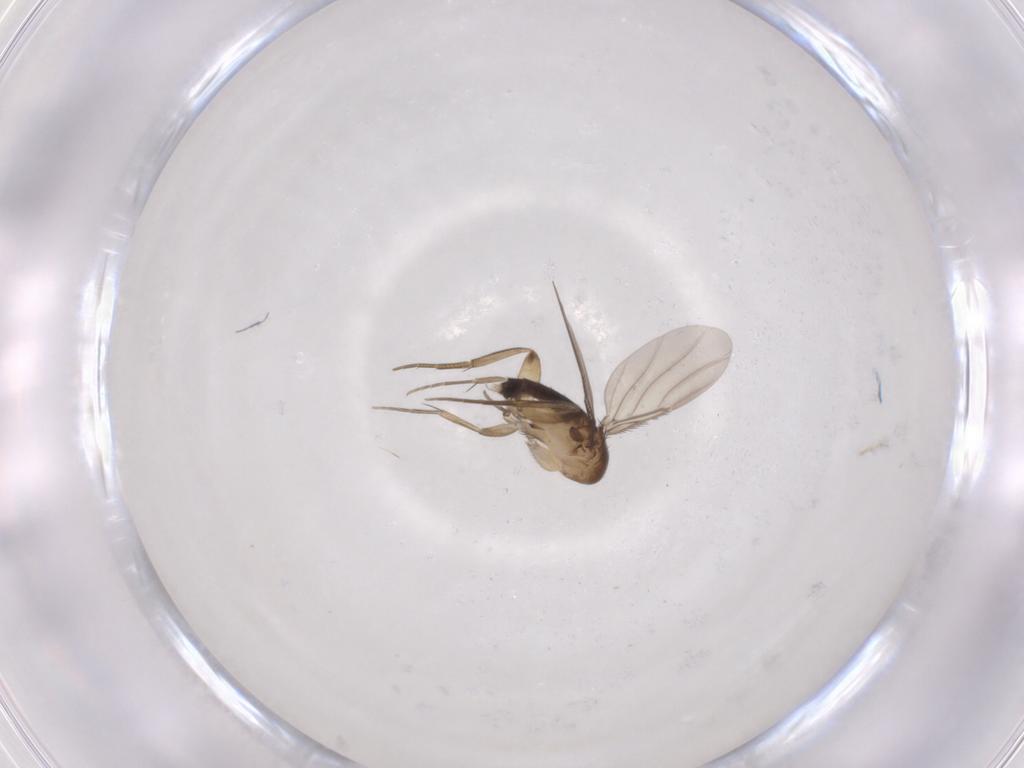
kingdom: Animalia
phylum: Arthropoda
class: Insecta
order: Diptera
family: Phoridae
